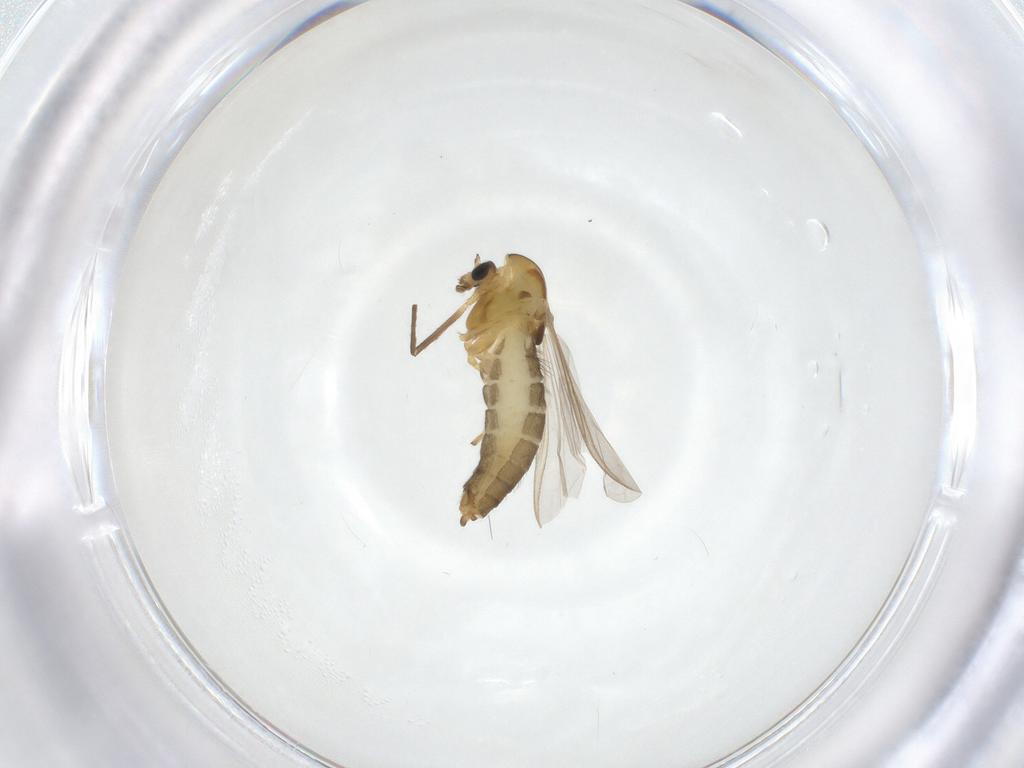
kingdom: Animalia
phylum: Arthropoda
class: Insecta
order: Diptera
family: Chironomidae
